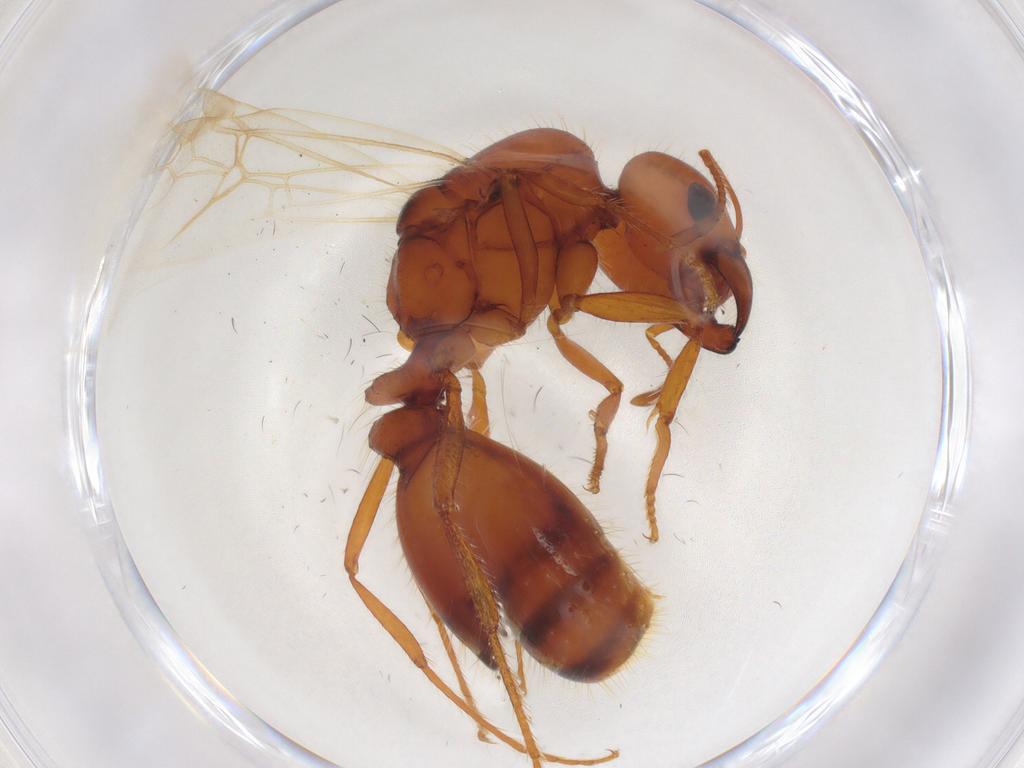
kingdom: Animalia
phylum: Arthropoda
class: Insecta
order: Hymenoptera
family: Formicidae
